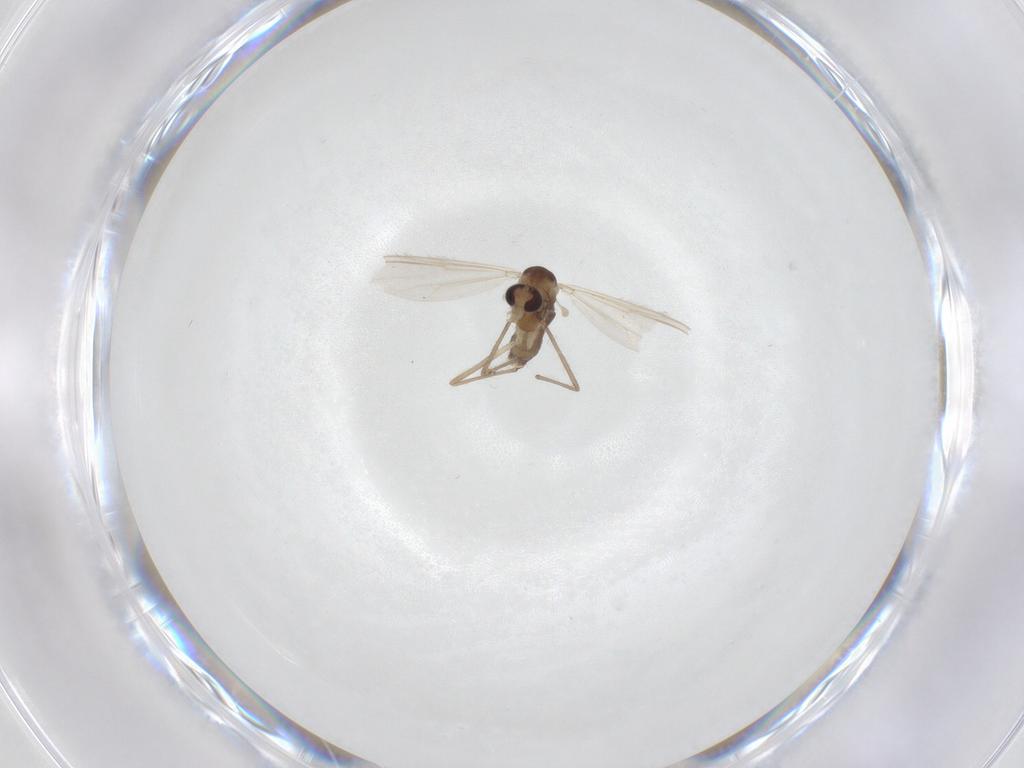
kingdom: Animalia
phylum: Arthropoda
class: Insecta
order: Diptera
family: Chironomidae
